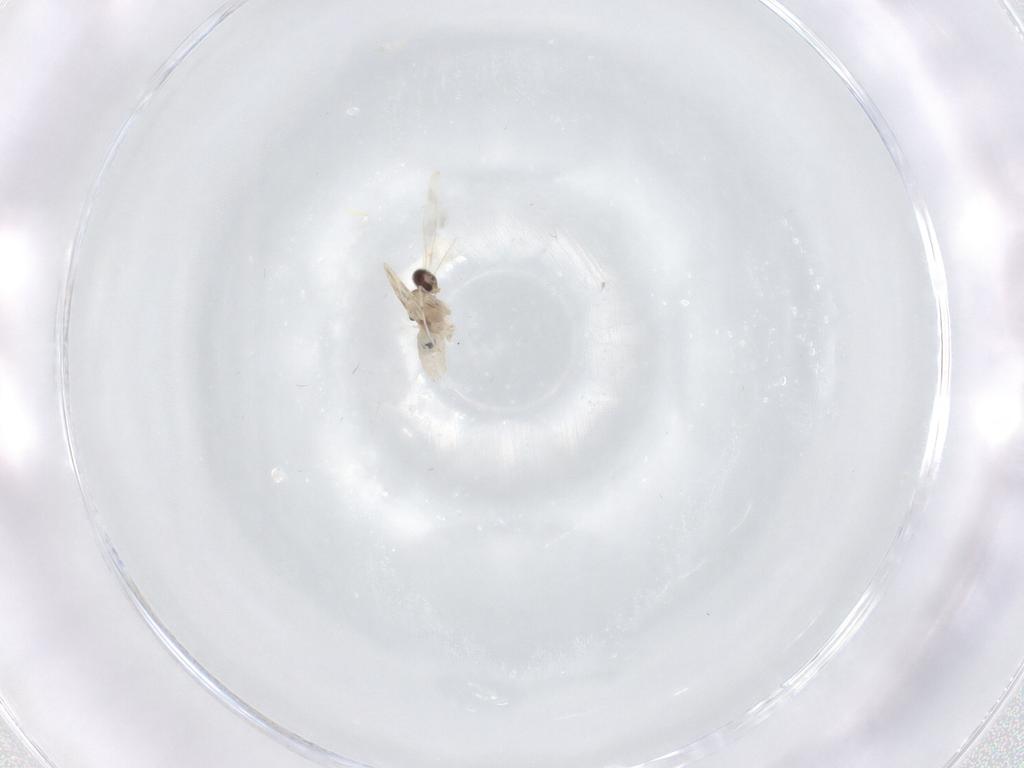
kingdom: Animalia
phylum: Arthropoda
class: Insecta
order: Diptera
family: Cecidomyiidae
